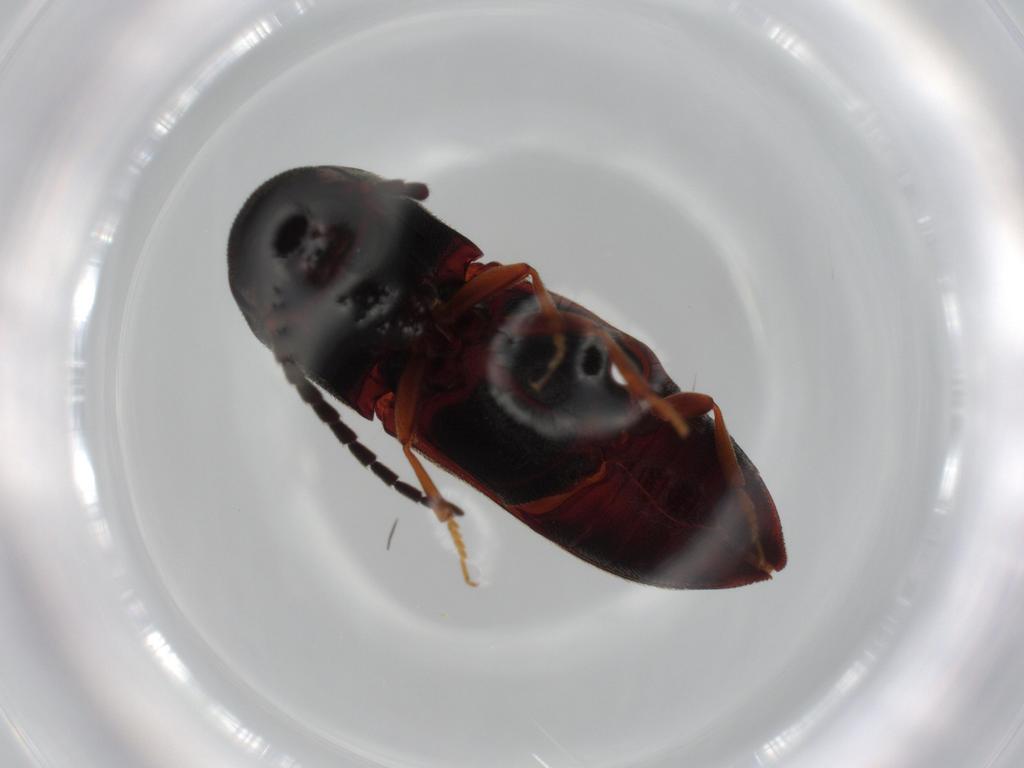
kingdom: Animalia
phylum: Arthropoda
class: Insecta
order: Coleoptera
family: Eucnemidae
